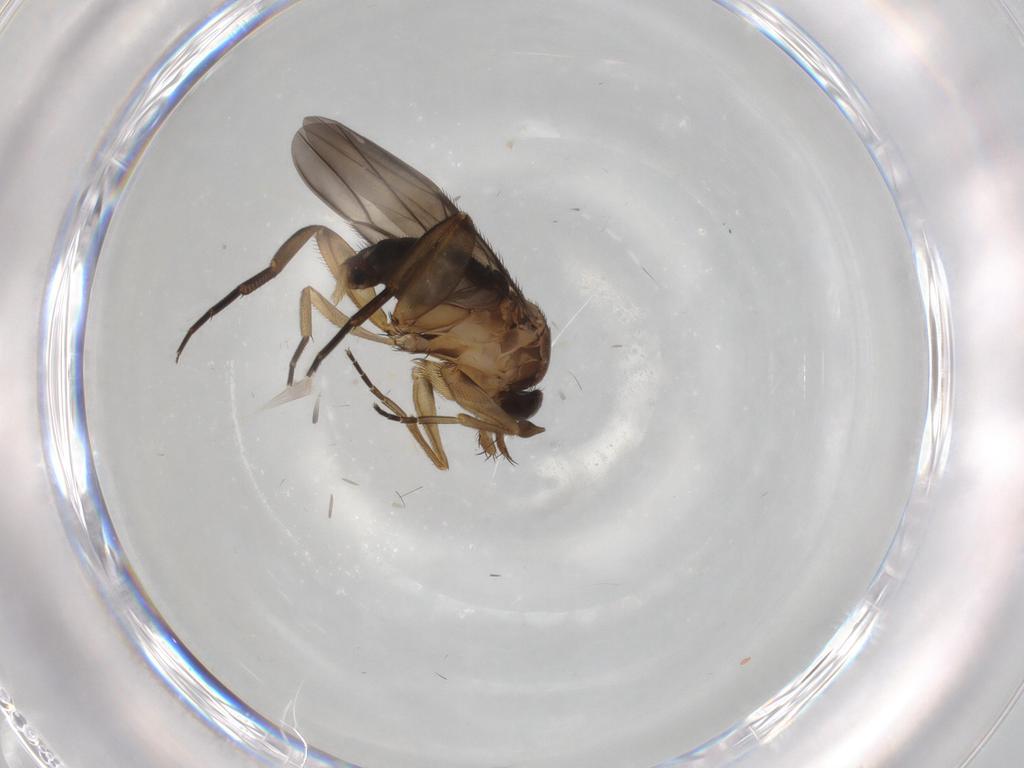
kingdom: Animalia
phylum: Arthropoda
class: Insecta
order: Diptera
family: Phoridae
